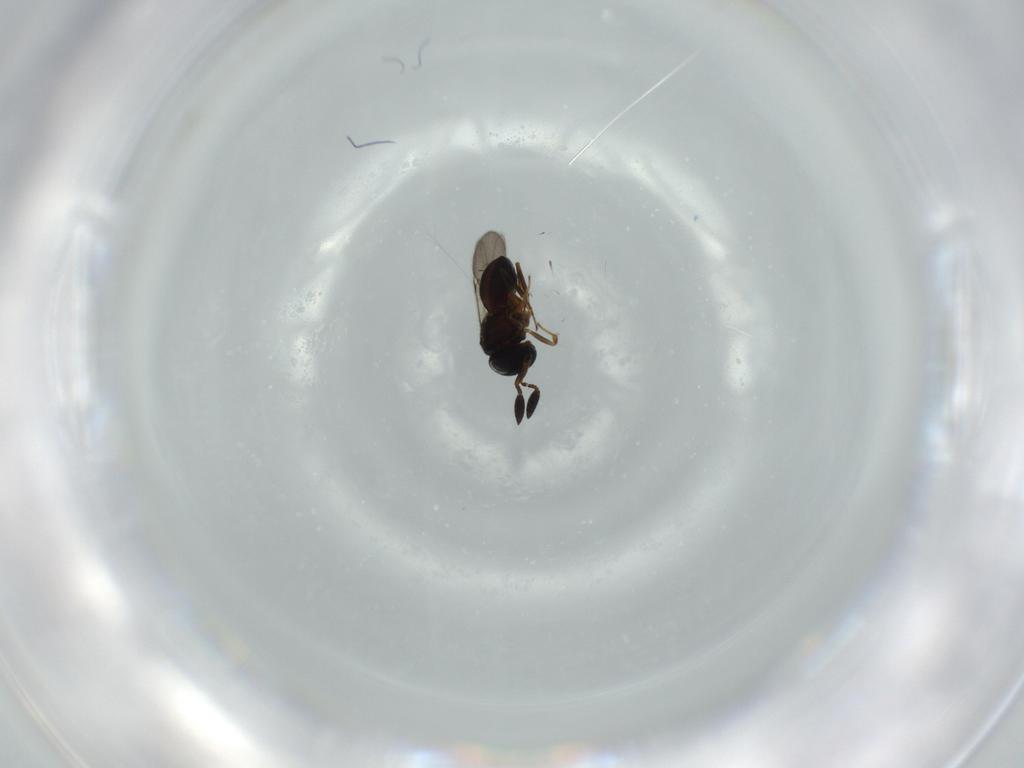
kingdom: Animalia
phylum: Arthropoda
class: Insecta
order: Hymenoptera
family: Scelionidae
